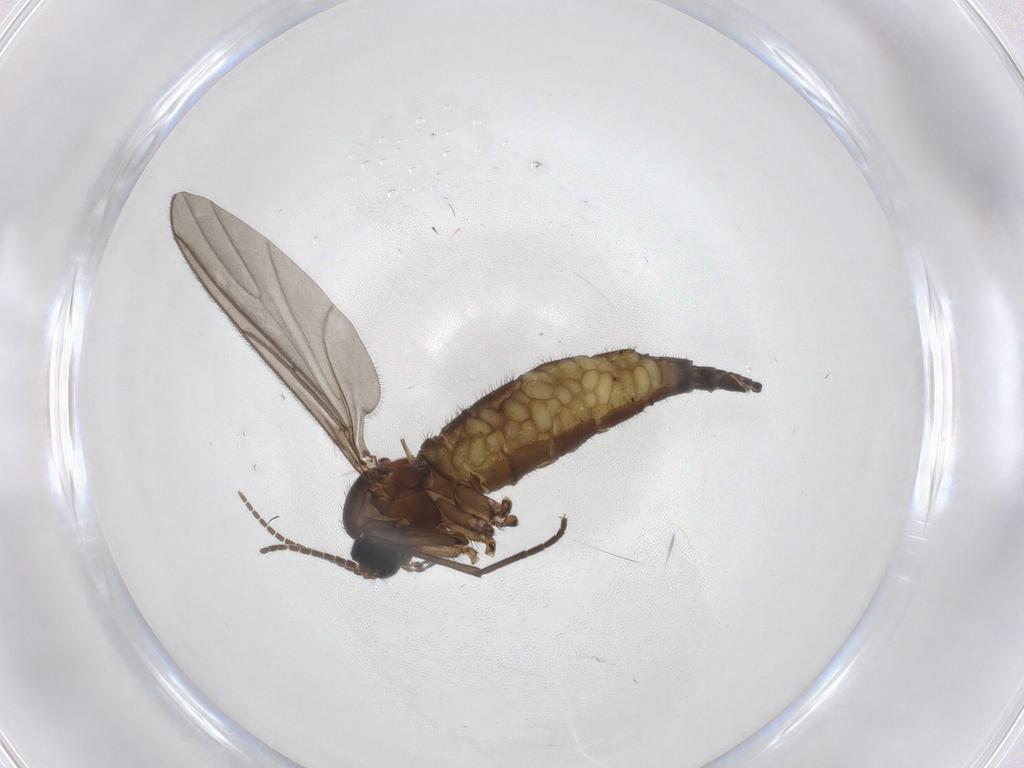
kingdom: Animalia
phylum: Arthropoda
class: Insecta
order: Diptera
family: Sciaridae
